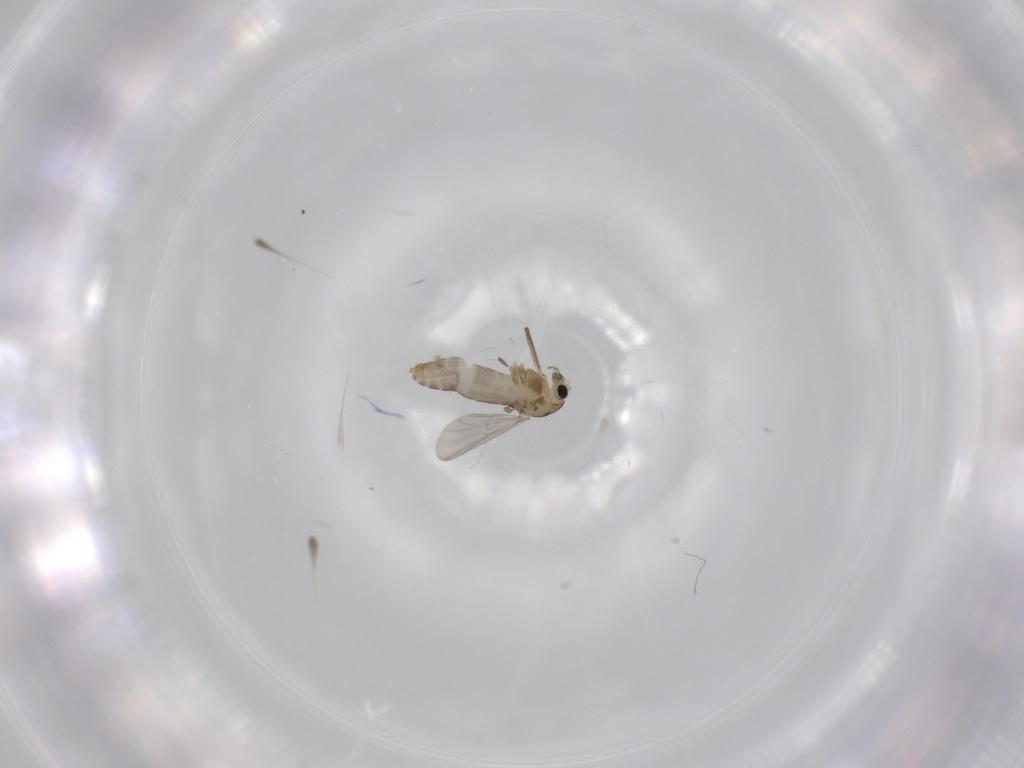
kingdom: Animalia
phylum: Arthropoda
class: Insecta
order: Diptera
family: Chironomidae
